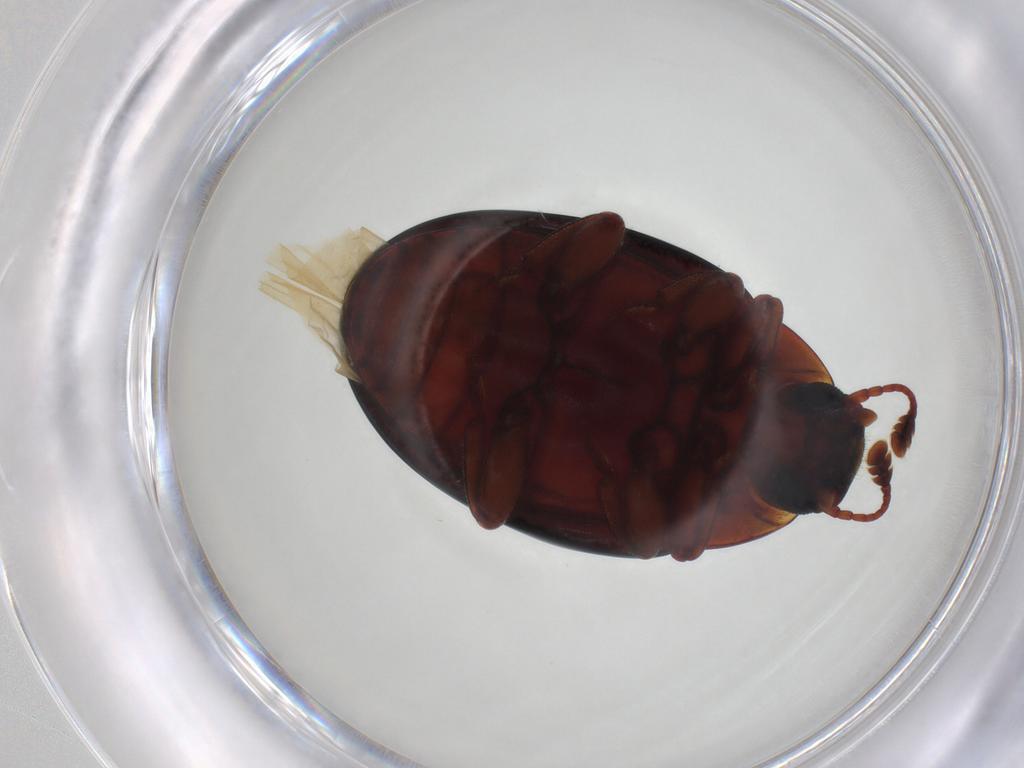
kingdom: Animalia
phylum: Arthropoda
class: Insecta
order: Coleoptera
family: Zopheridae
